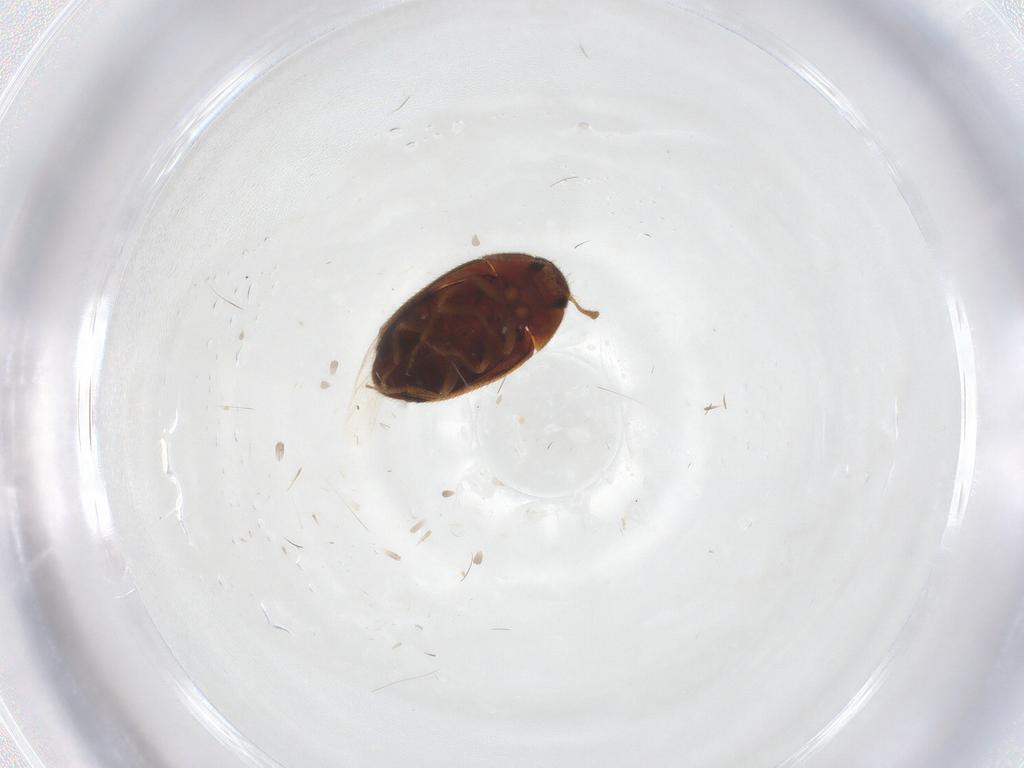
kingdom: Animalia
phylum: Arthropoda
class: Insecta
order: Coleoptera
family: Mycetophagidae
